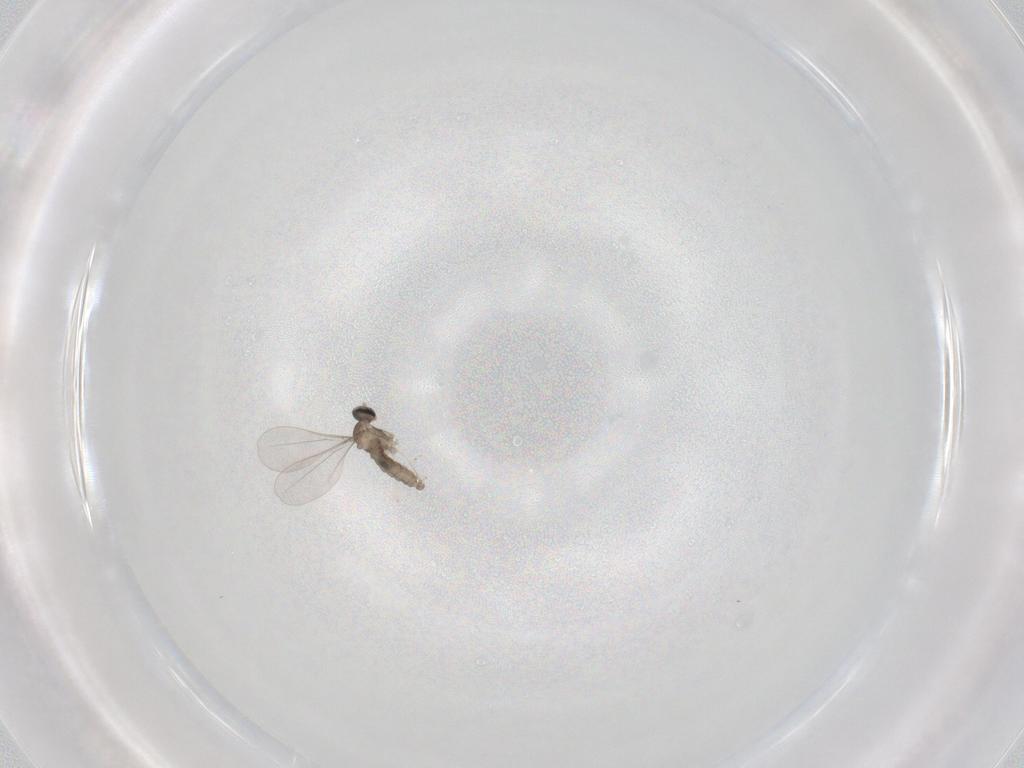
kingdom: Animalia
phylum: Arthropoda
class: Insecta
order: Diptera
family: Cecidomyiidae
